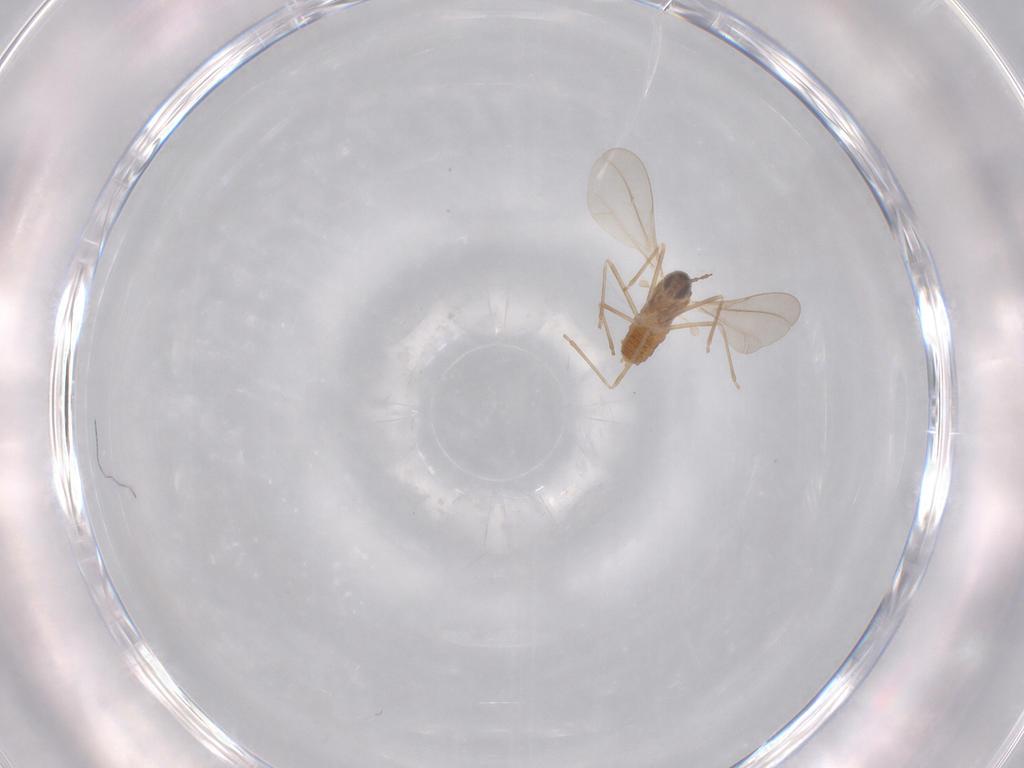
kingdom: Animalia
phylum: Arthropoda
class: Insecta
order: Diptera
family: Cecidomyiidae
